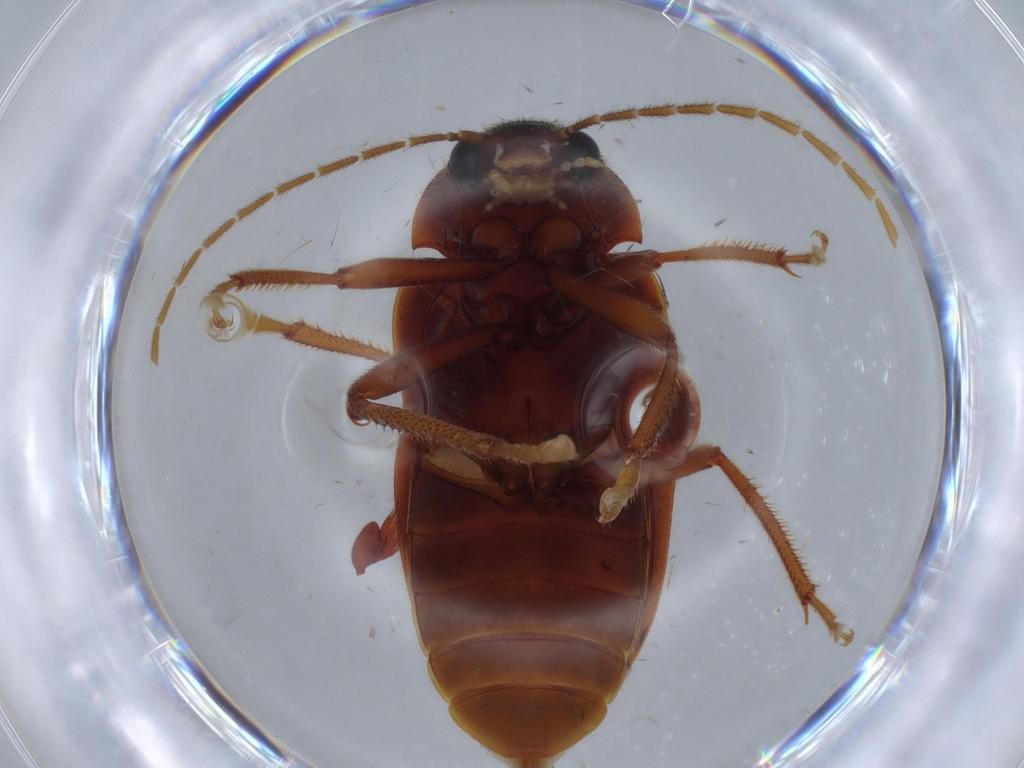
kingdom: Animalia
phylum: Arthropoda
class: Insecta
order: Coleoptera
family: Ptilodactylidae
